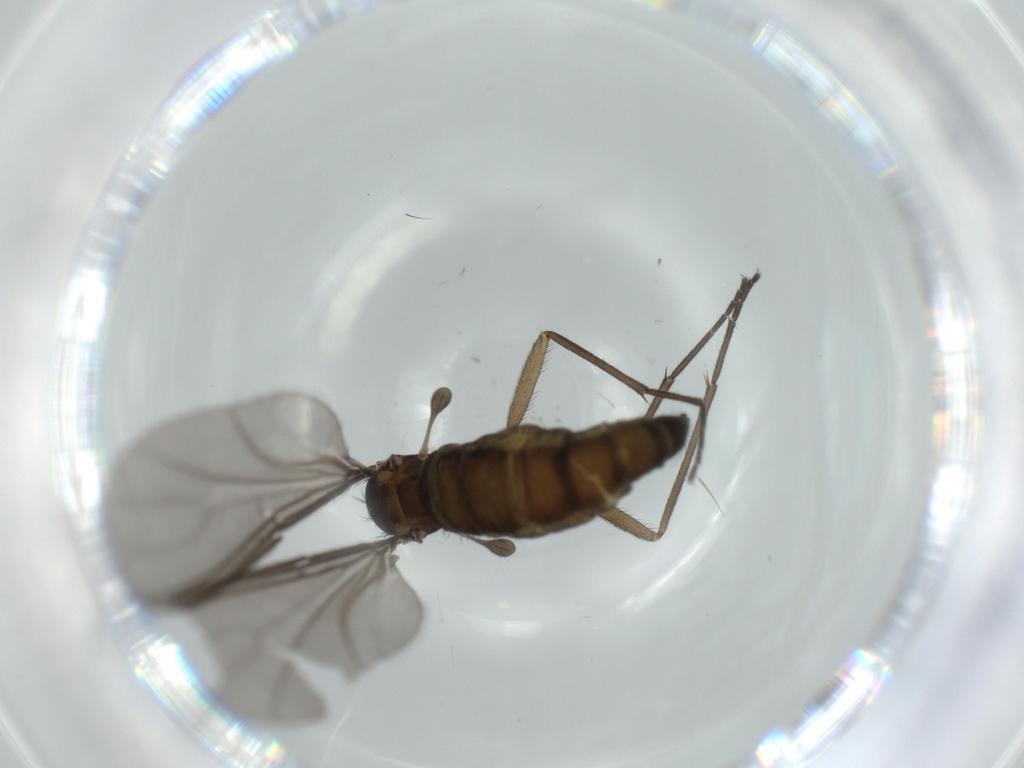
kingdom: Animalia
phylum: Arthropoda
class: Insecta
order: Diptera
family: Sciaridae
